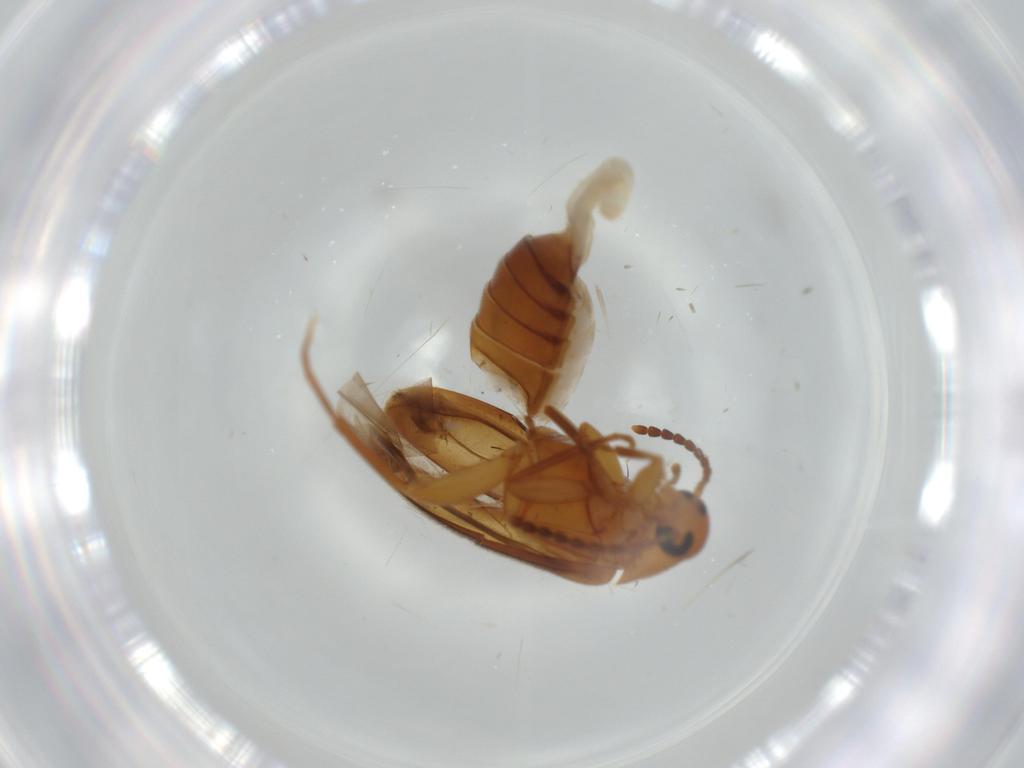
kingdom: Animalia
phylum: Arthropoda
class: Insecta
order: Coleoptera
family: Scraptiidae
